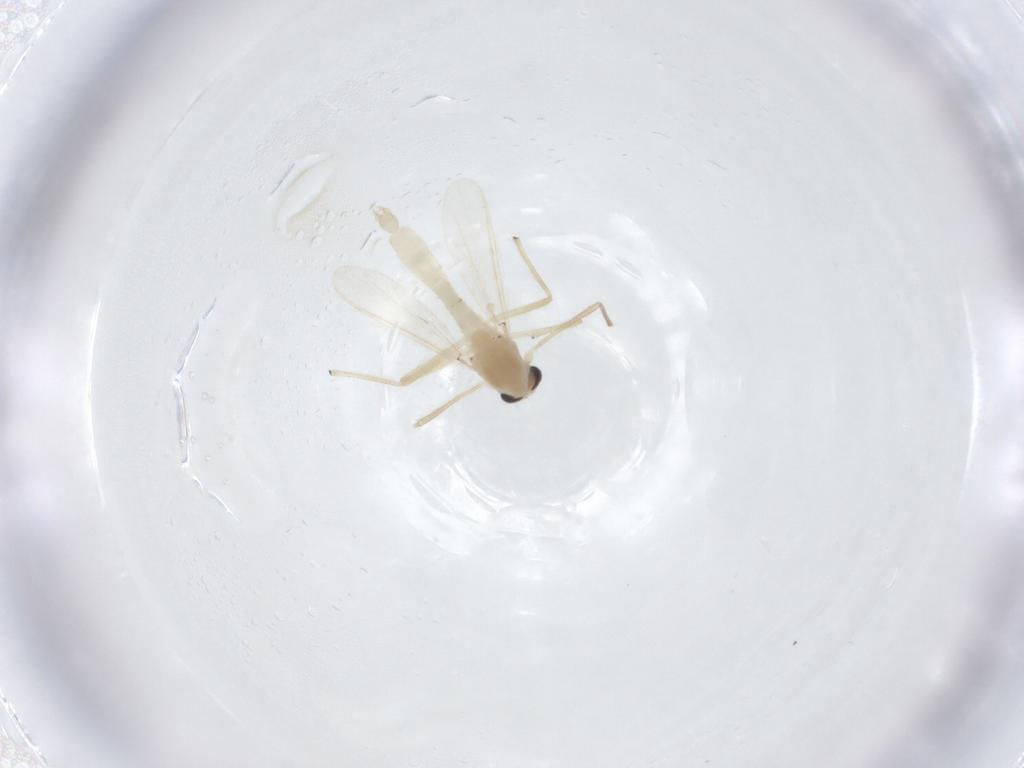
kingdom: Animalia
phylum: Arthropoda
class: Insecta
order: Diptera
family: Chironomidae
